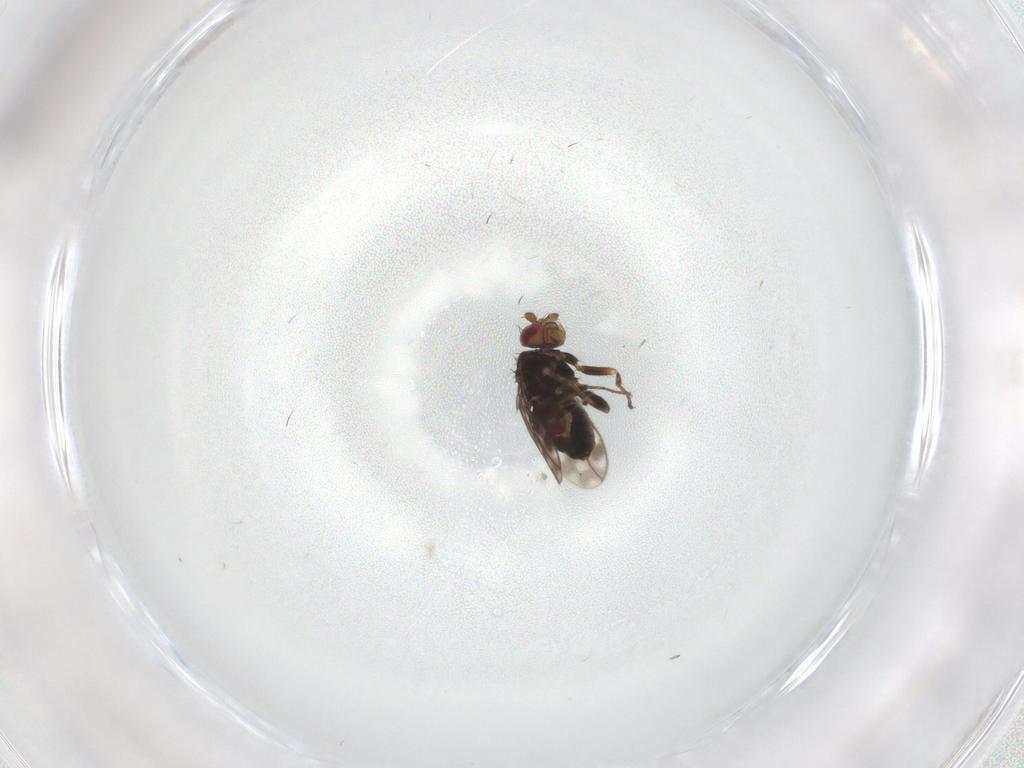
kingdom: Animalia
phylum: Arthropoda
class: Insecta
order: Diptera
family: Sphaeroceridae
